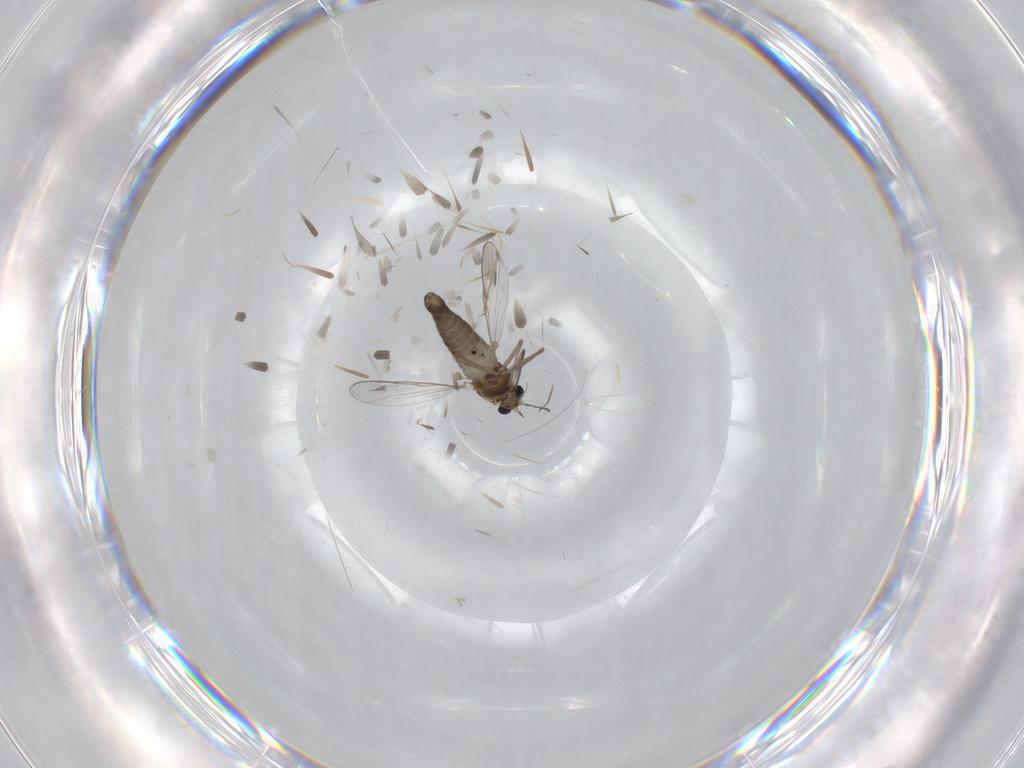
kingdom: Animalia
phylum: Arthropoda
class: Insecta
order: Diptera
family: Chironomidae
